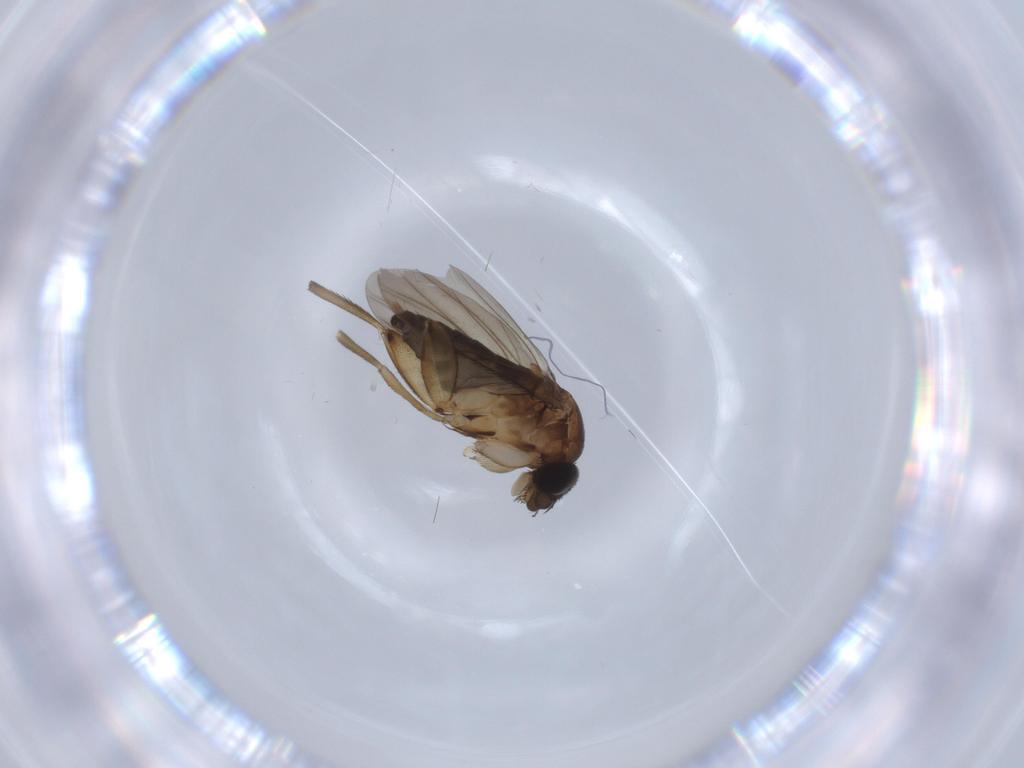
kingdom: Animalia
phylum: Arthropoda
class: Insecta
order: Diptera
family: Phoridae
